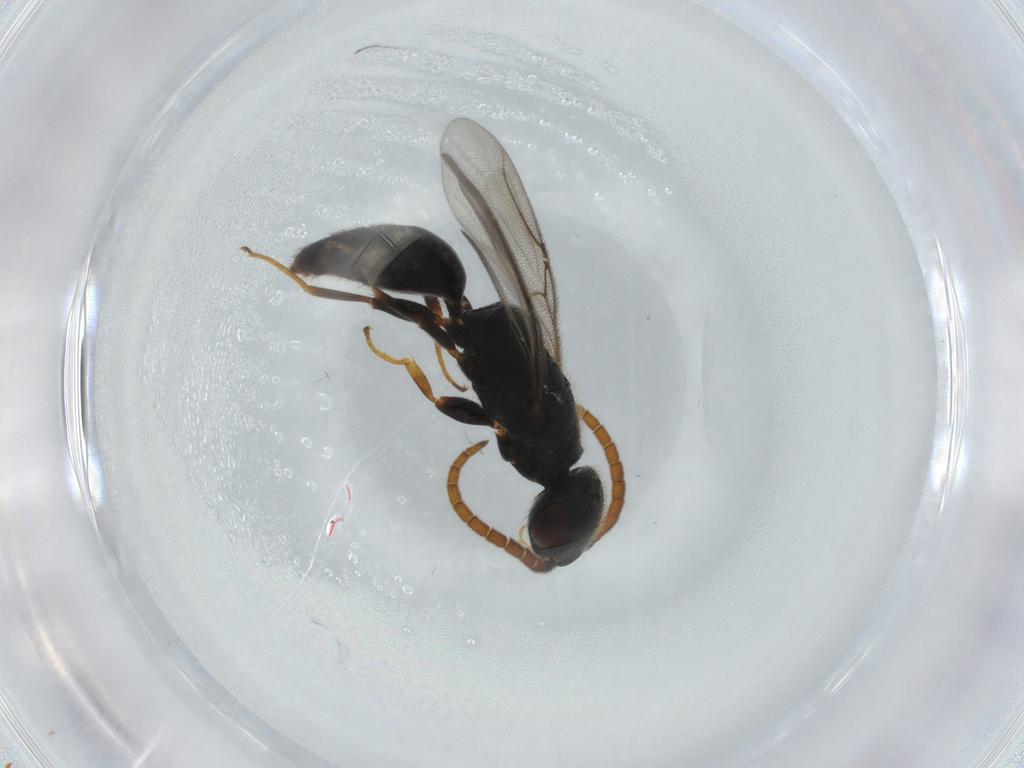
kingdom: Animalia
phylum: Arthropoda
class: Insecta
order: Hymenoptera
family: Bethylidae
